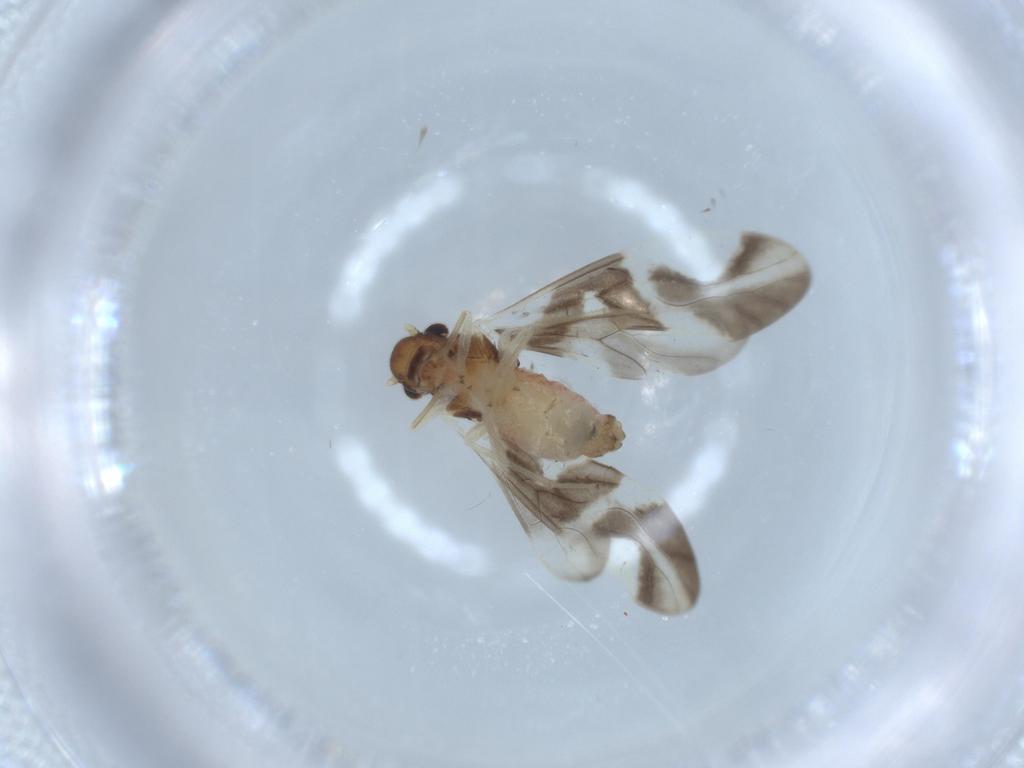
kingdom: Animalia
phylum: Arthropoda
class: Insecta
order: Psocodea
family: Caeciliusidae
